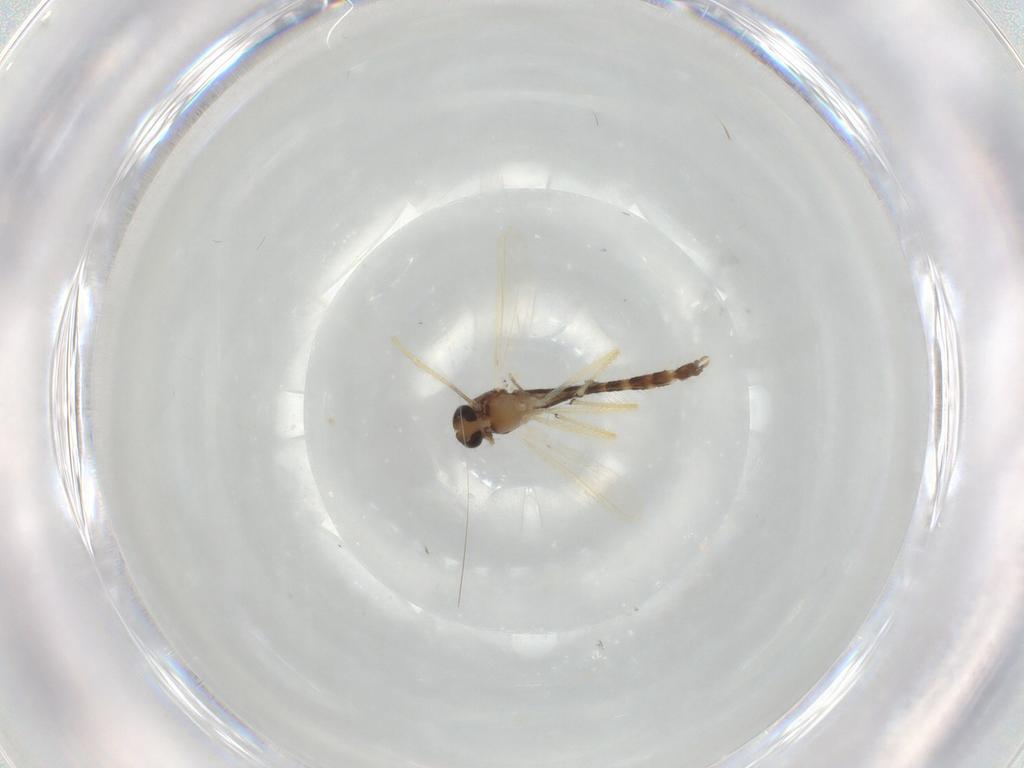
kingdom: Animalia
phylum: Arthropoda
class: Insecta
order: Diptera
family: Chironomidae
